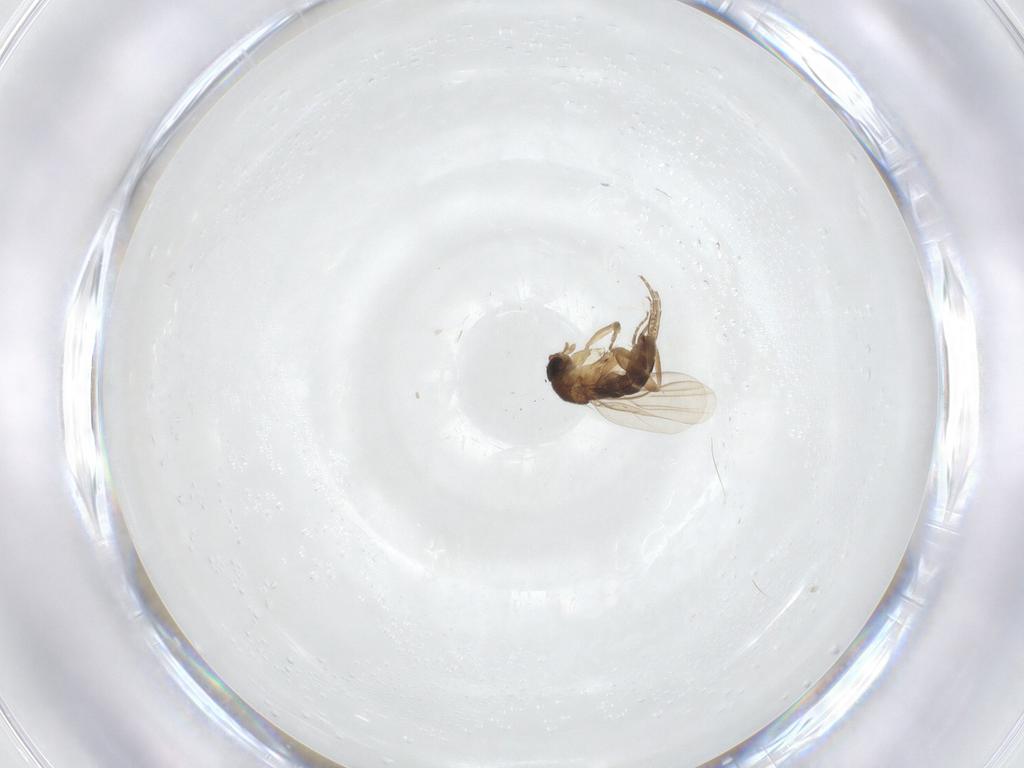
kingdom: Animalia
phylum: Arthropoda
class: Insecta
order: Diptera
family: Phoridae
